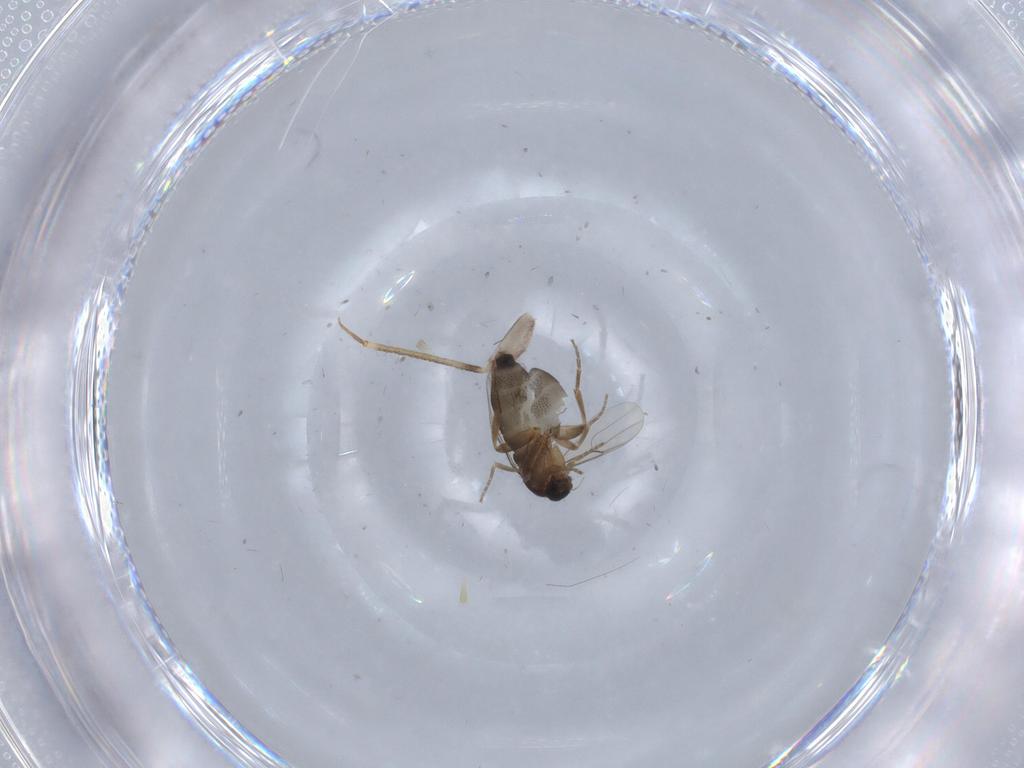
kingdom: Animalia
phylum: Arthropoda
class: Insecta
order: Diptera
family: Phoridae
